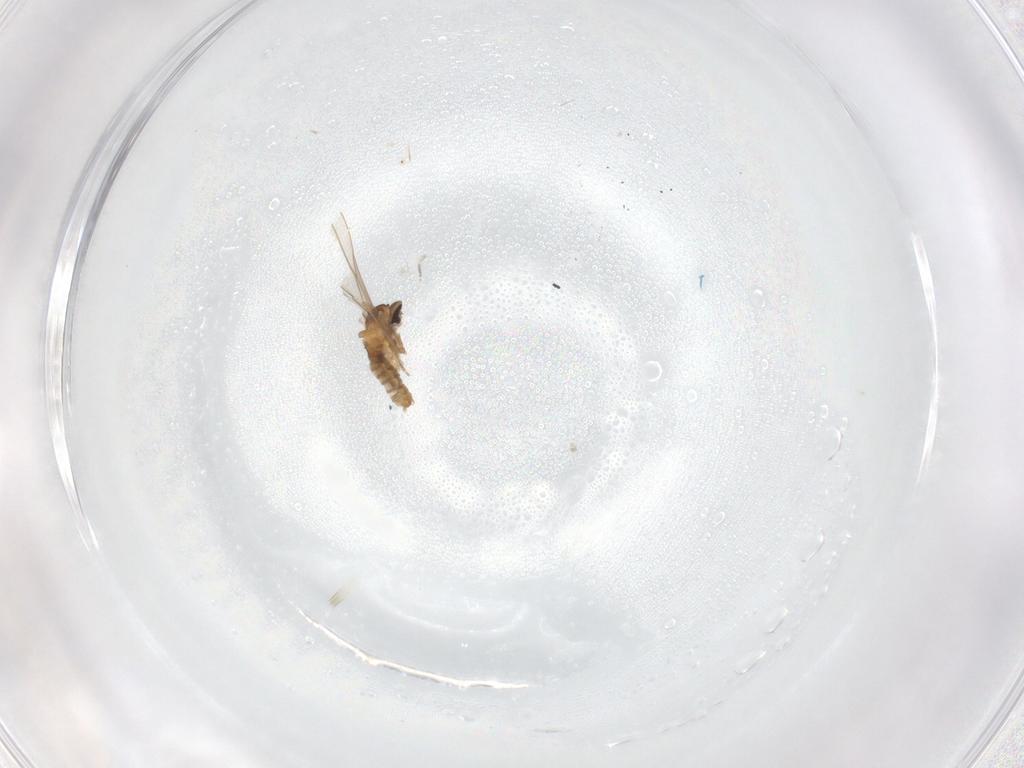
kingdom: Animalia
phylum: Arthropoda
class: Insecta
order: Diptera
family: Cecidomyiidae
